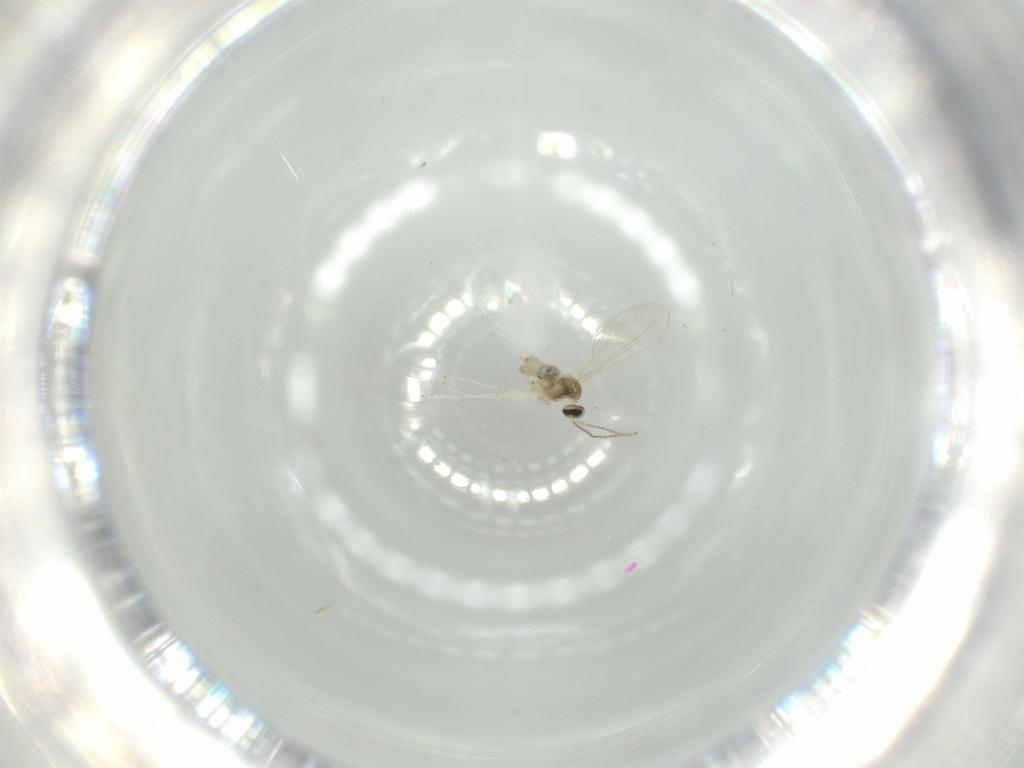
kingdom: Animalia
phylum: Arthropoda
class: Insecta
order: Diptera
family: Cecidomyiidae
